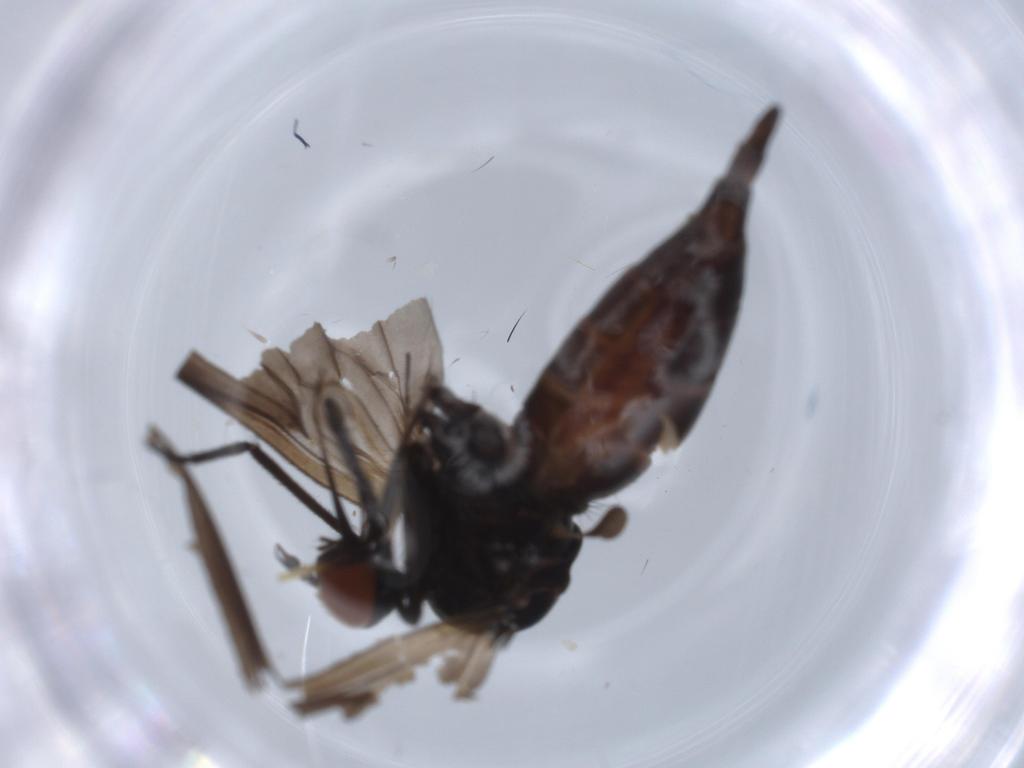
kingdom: Animalia
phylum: Arthropoda
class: Insecta
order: Diptera
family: Empididae
